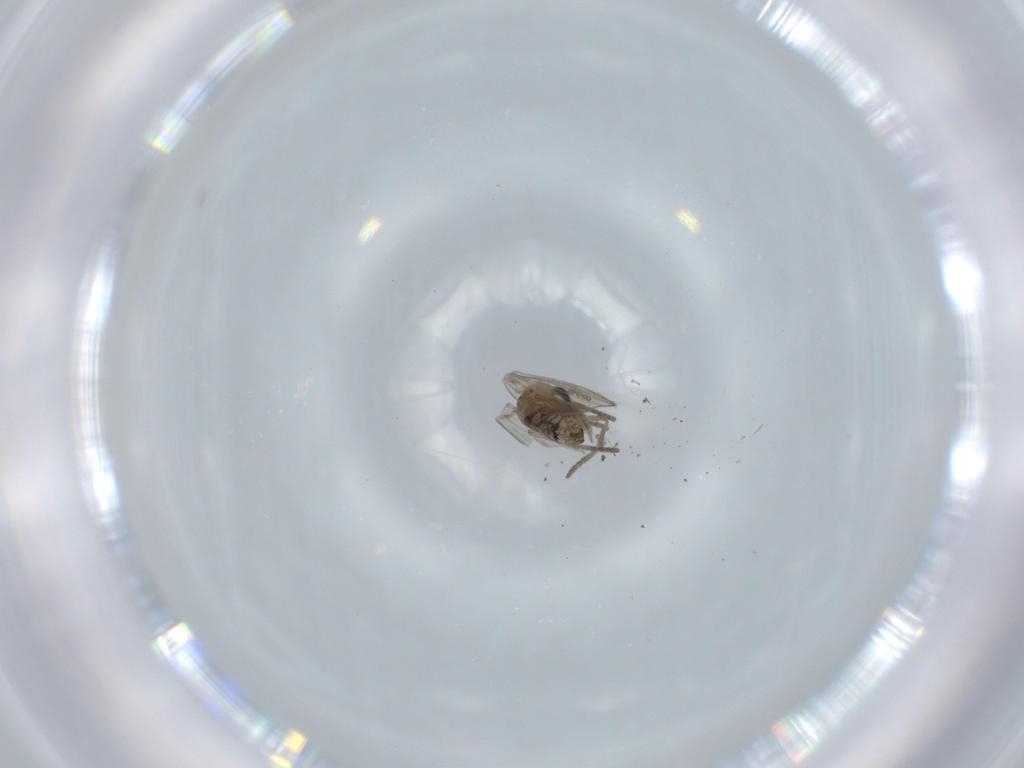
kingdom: Animalia
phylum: Arthropoda
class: Insecta
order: Diptera
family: Psychodidae
